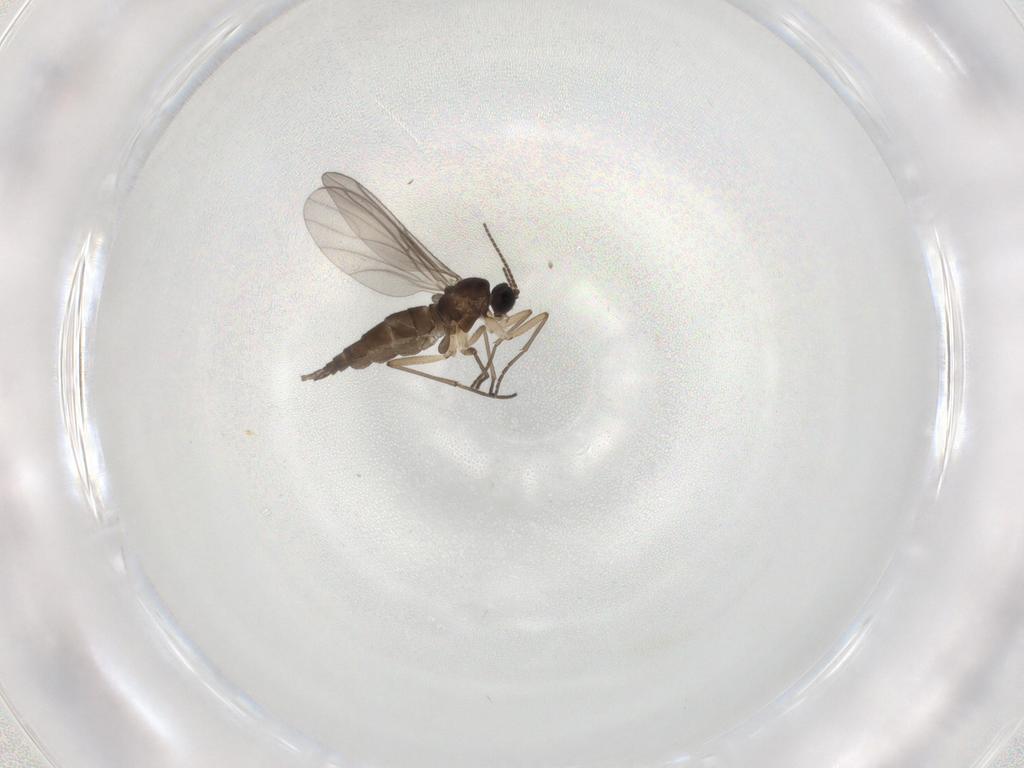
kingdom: Animalia
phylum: Arthropoda
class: Insecta
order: Diptera
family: Sciaridae
